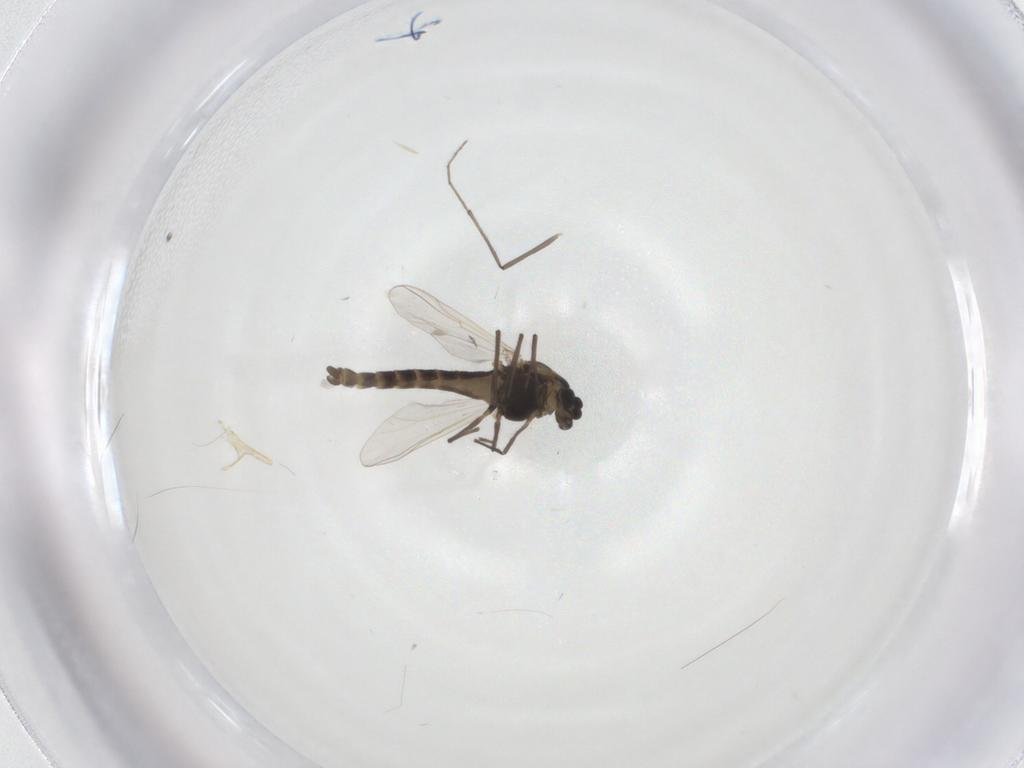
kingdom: Animalia
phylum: Arthropoda
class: Insecta
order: Diptera
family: Chironomidae
